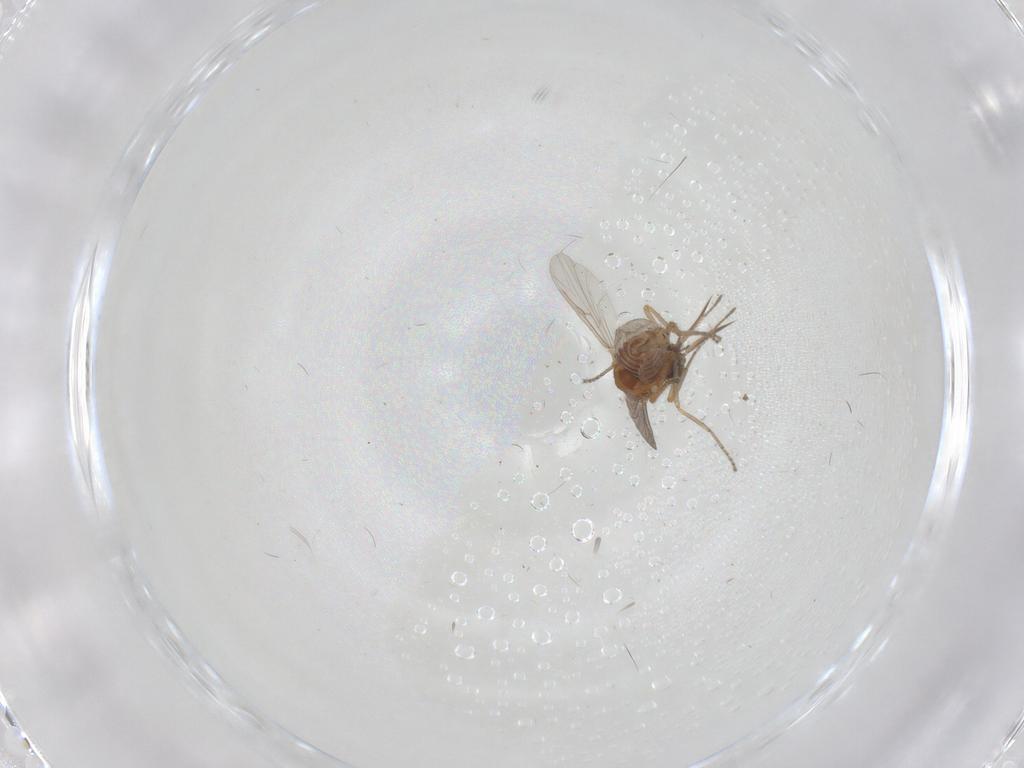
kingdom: Animalia
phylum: Arthropoda
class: Insecta
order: Diptera
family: Ceratopogonidae
